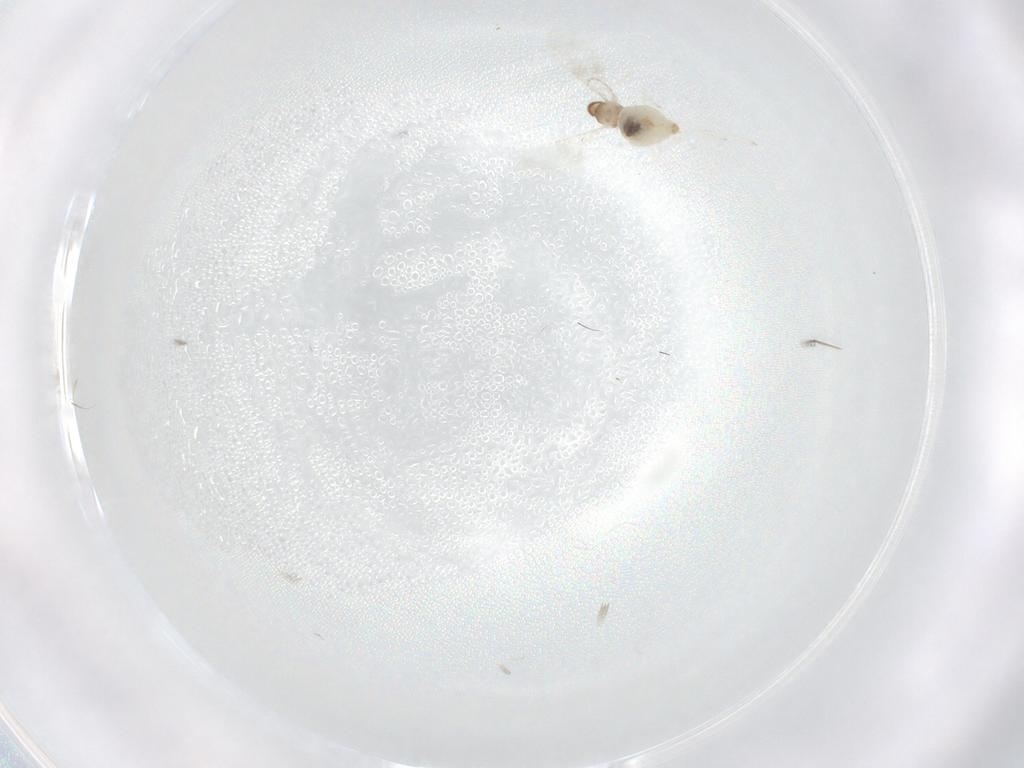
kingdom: Animalia
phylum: Arthropoda
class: Insecta
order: Diptera
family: Cecidomyiidae
